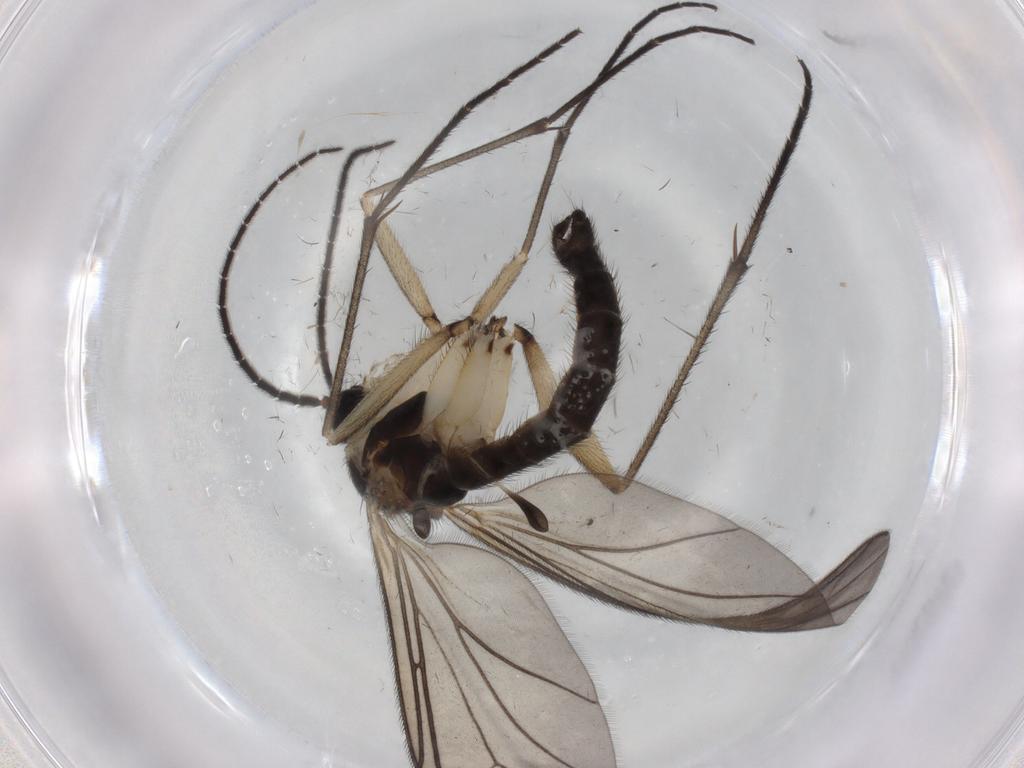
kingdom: Animalia
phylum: Arthropoda
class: Insecta
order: Diptera
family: Sciaridae
